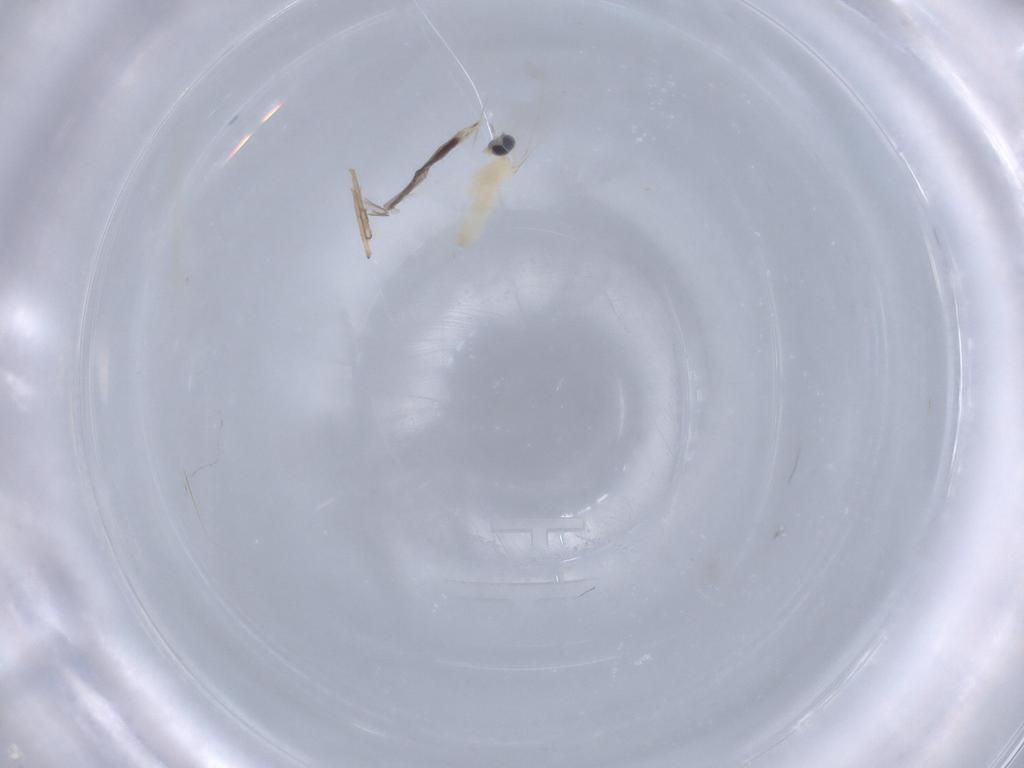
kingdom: Animalia
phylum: Arthropoda
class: Insecta
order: Diptera
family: Cecidomyiidae
